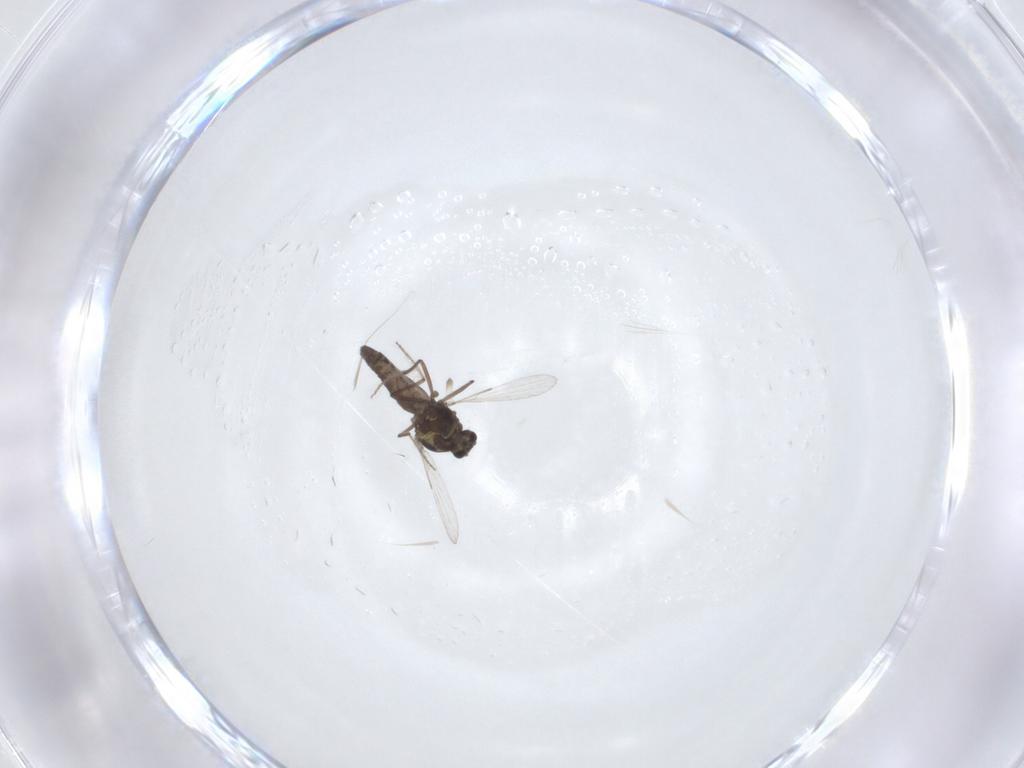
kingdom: Animalia
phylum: Arthropoda
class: Insecta
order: Diptera
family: Ceratopogonidae
